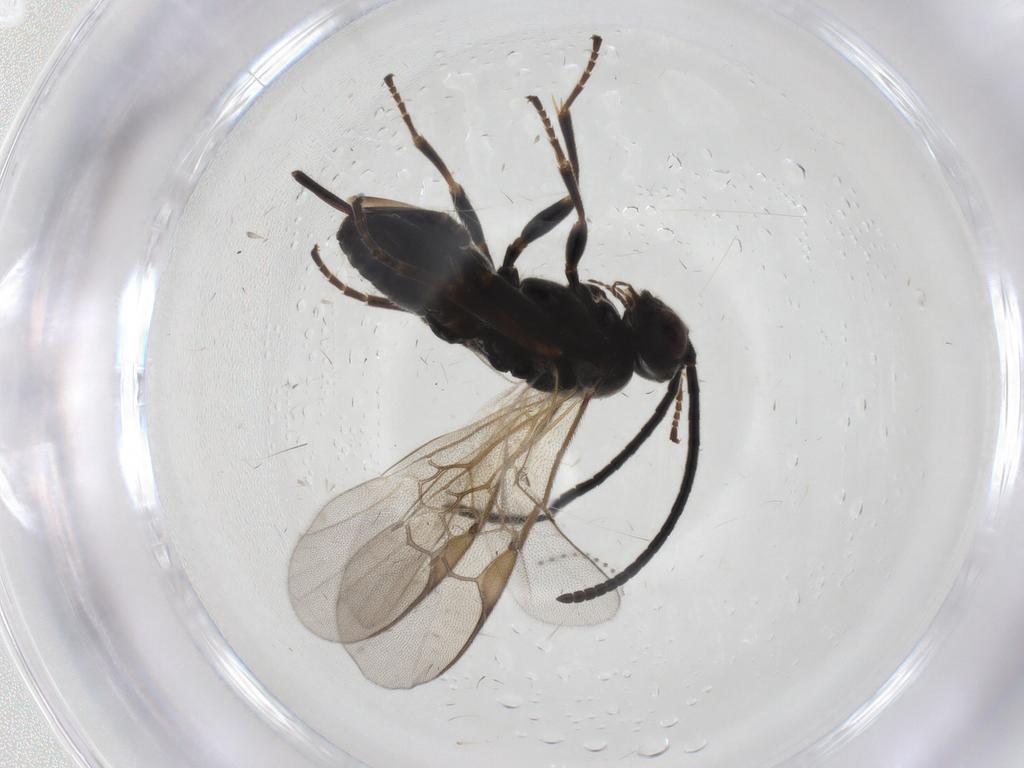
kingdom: Animalia
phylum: Arthropoda
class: Insecta
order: Hymenoptera
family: Braconidae
